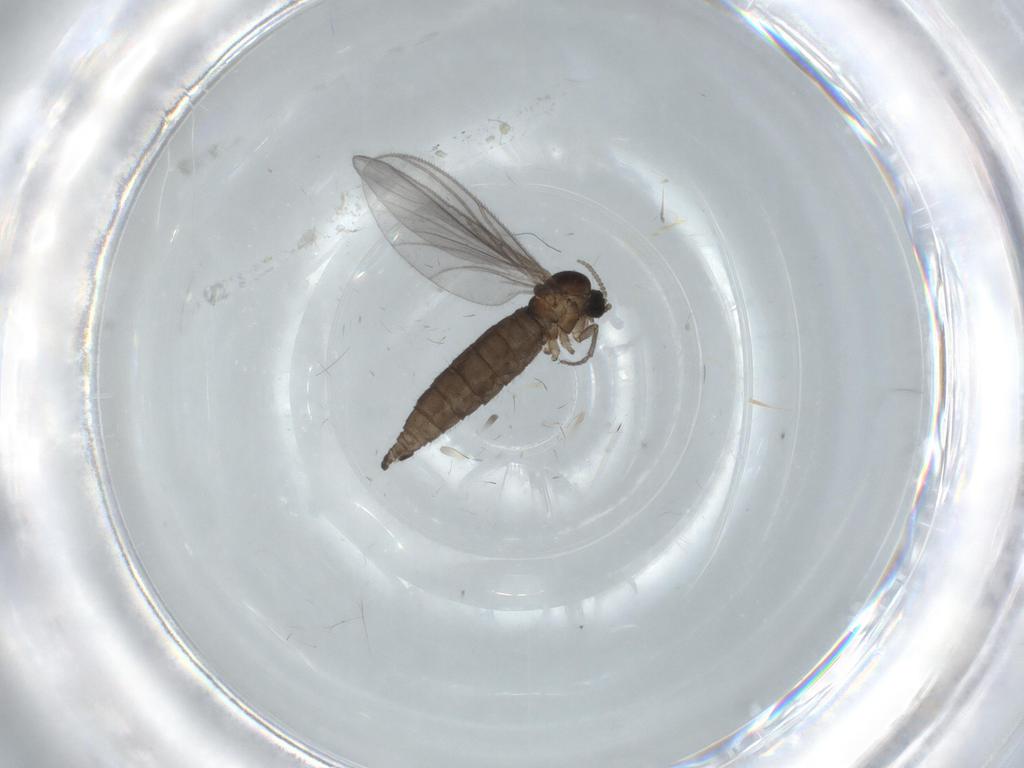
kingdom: Animalia
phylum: Arthropoda
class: Insecta
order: Diptera
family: Sciaridae
